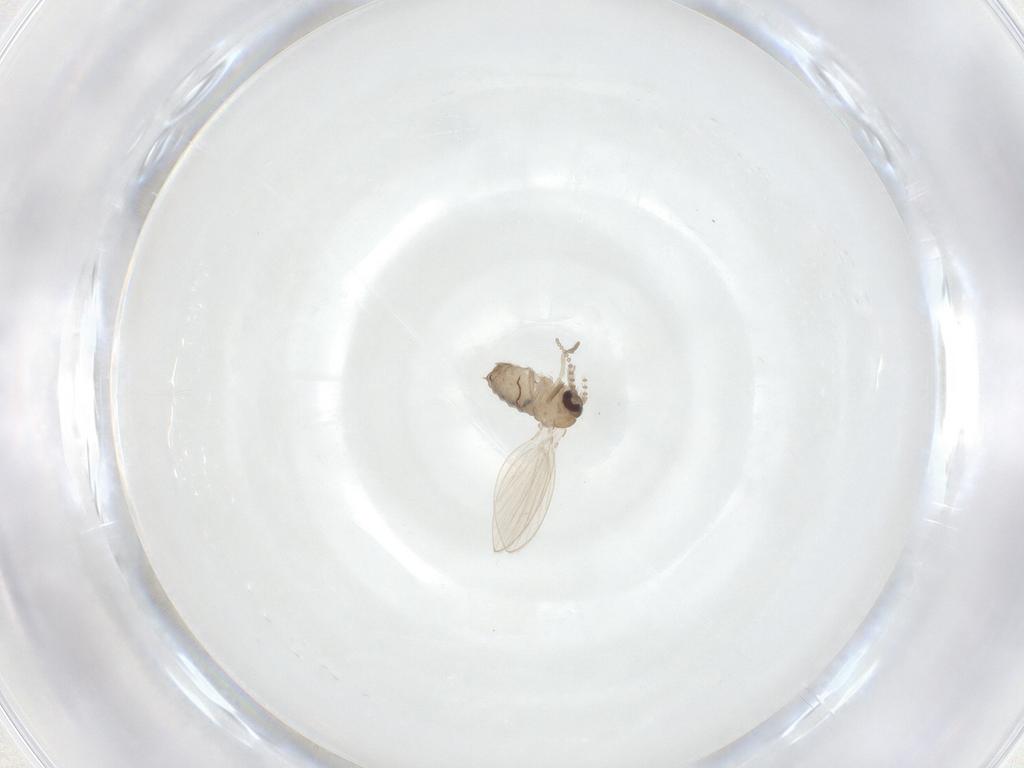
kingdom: Animalia
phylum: Arthropoda
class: Insecta
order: Diptera
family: Psychodidae
